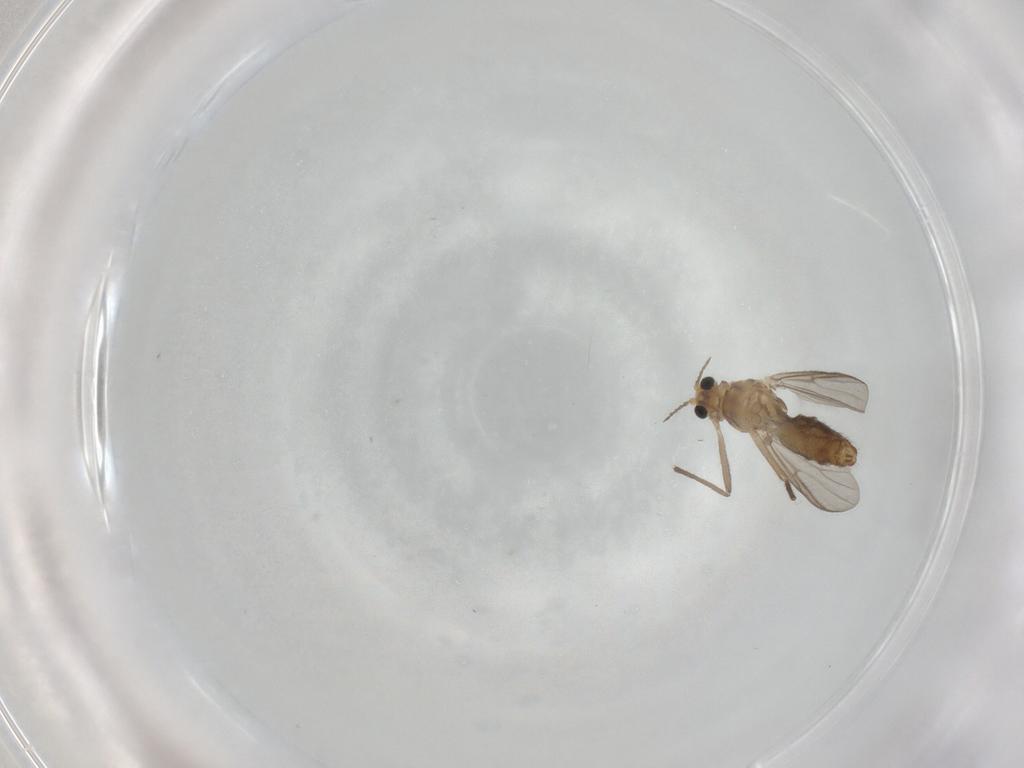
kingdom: Animalia
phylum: Arthropoda
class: Insecta
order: Diptera
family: Chironomidae
